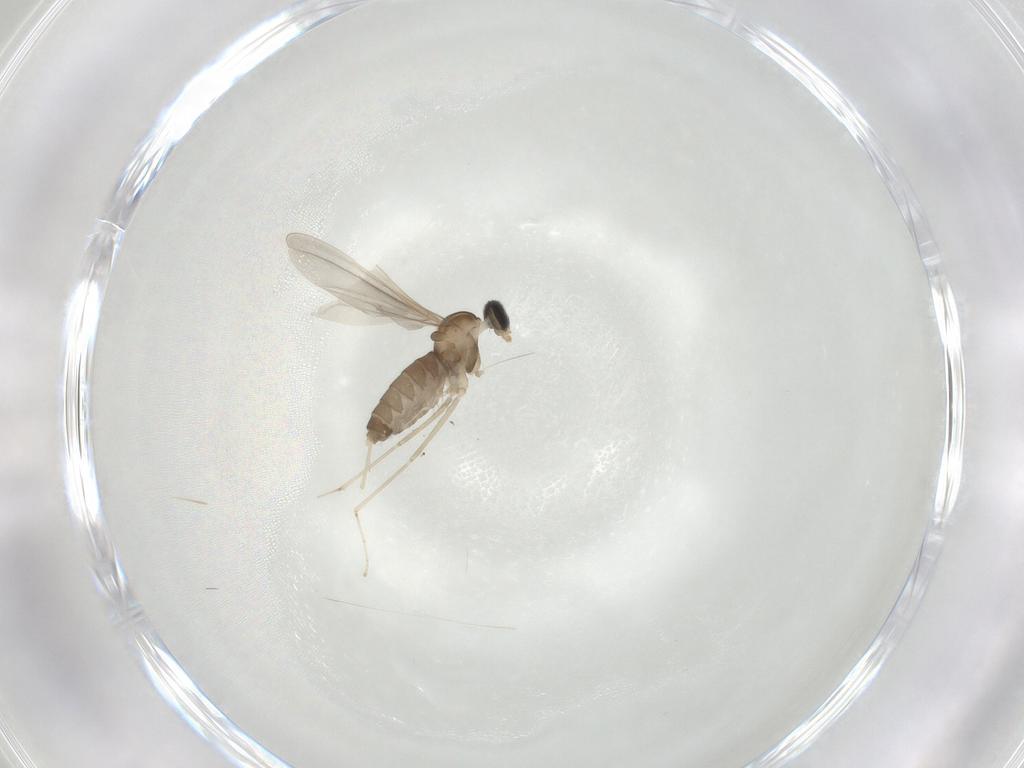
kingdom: Animalia
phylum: Arthropoda
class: Insecta
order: Diptera
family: Cecidomyiidae
